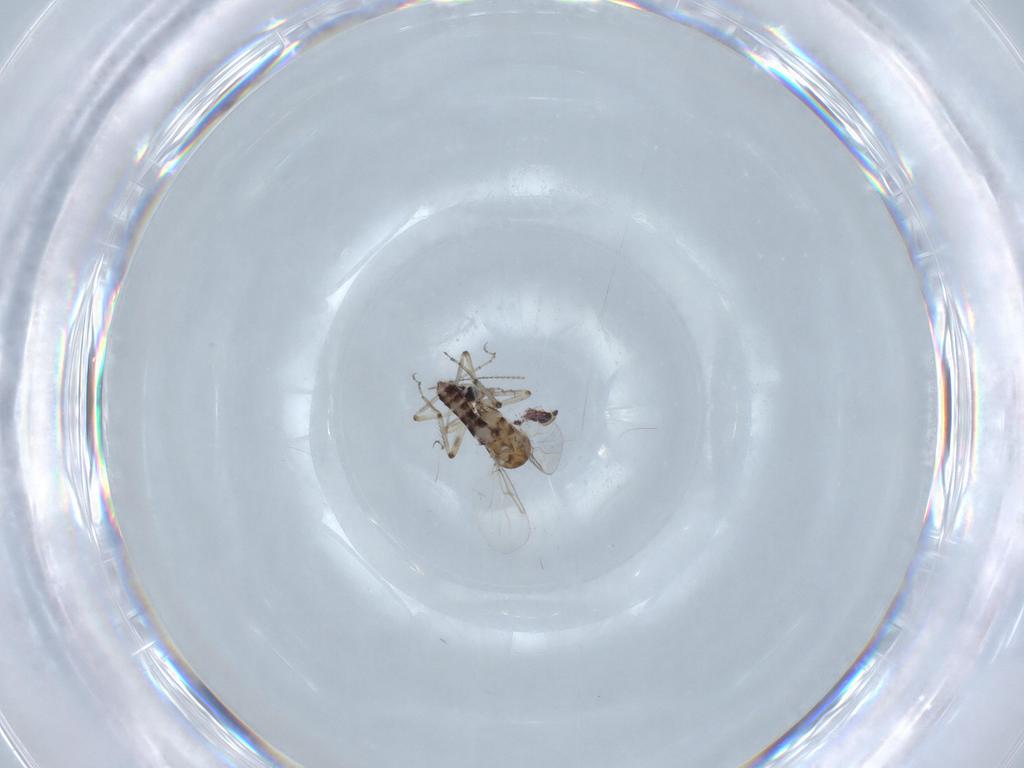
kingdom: Animalia
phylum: Arthropoda
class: Insecta
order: Diptera
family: Ceratopogonidae
